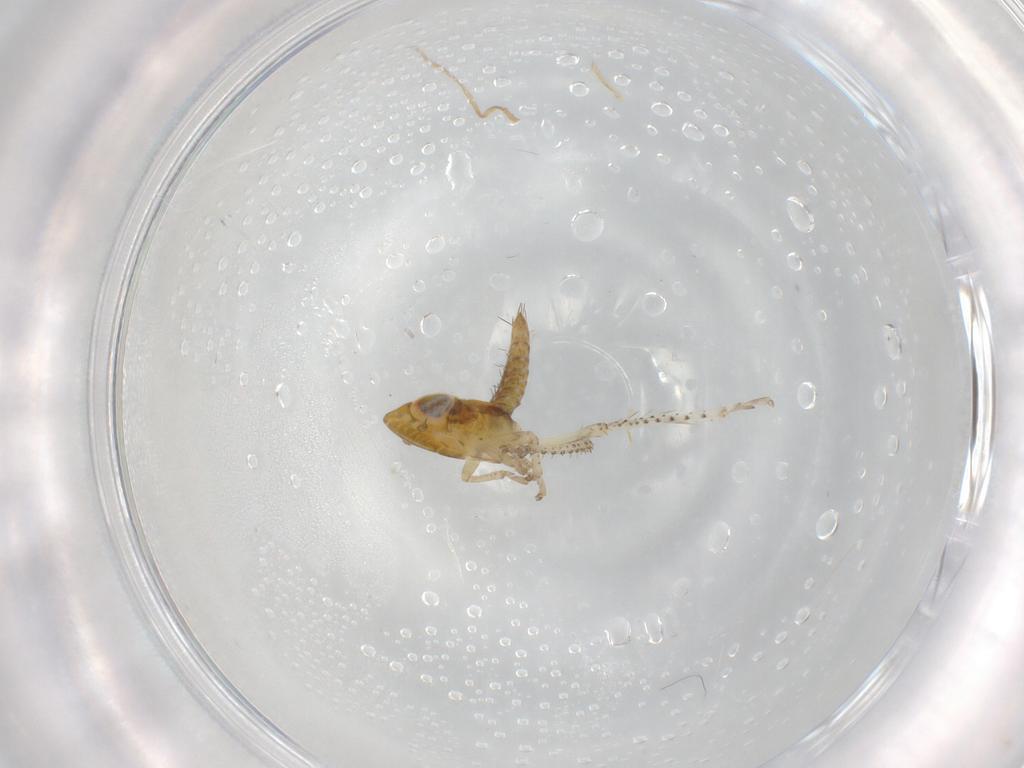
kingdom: Animalia
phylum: Arthropoda
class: Insecta
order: Hemiptera
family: Cicadellidae
